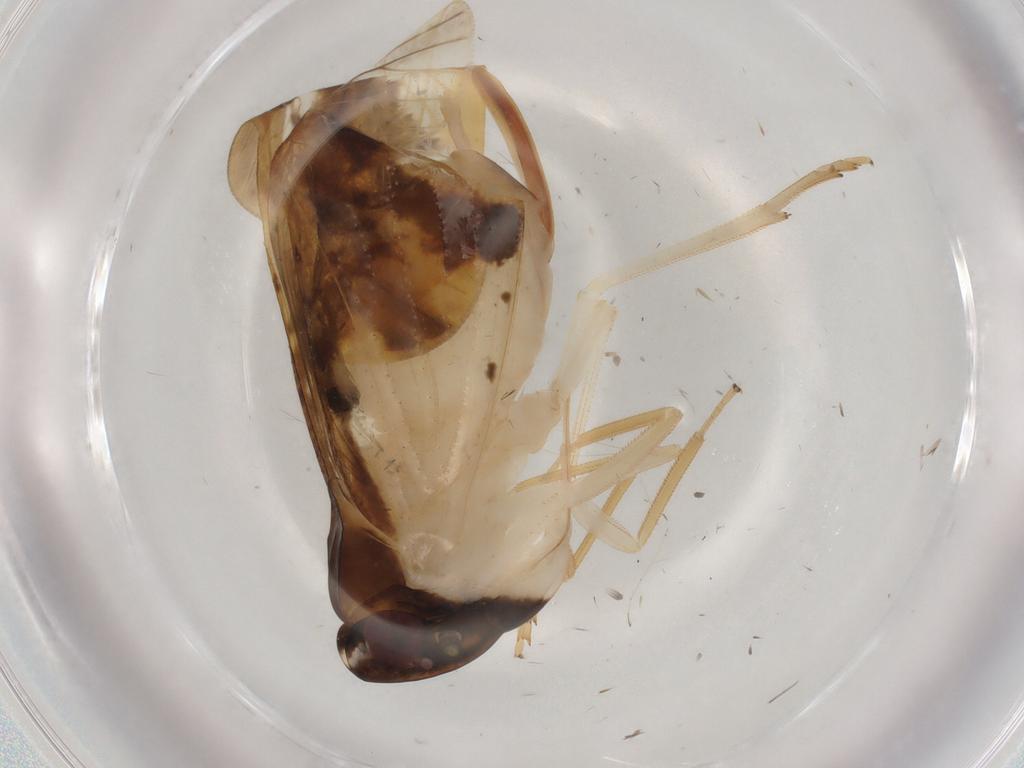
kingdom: Animalia
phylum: Arthropoda
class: Insecta
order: Hemiptera
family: Cixiidae
